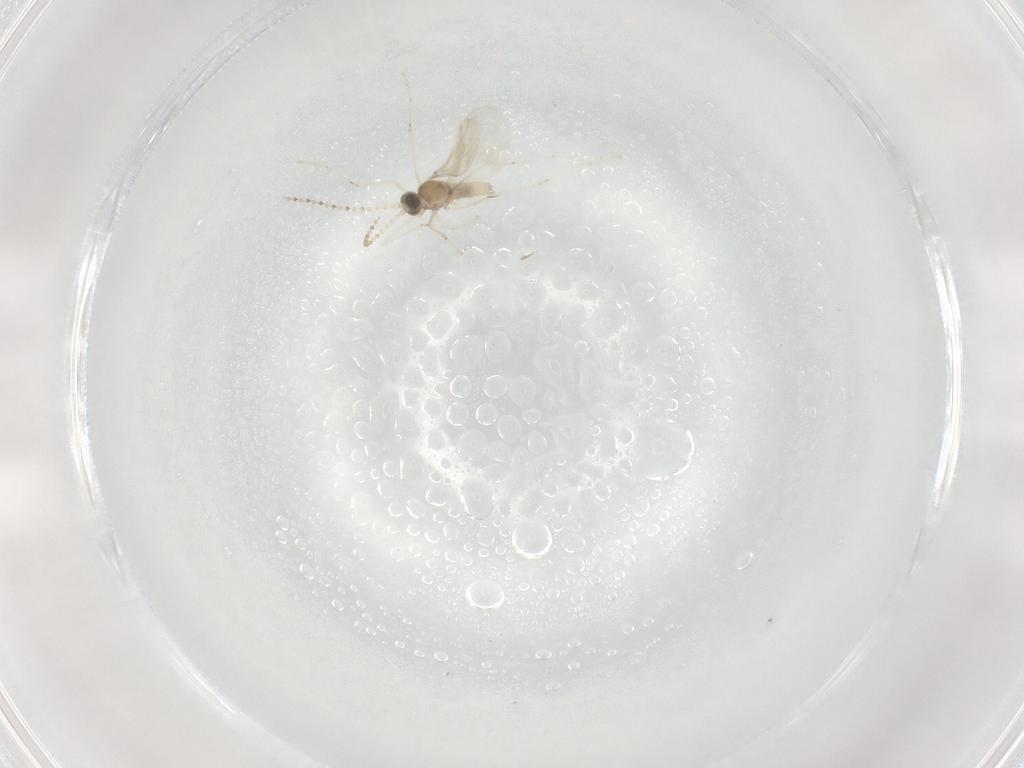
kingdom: Animalia
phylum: Arthropoda
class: Insecta
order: Diptera
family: Cecidomyiidae
